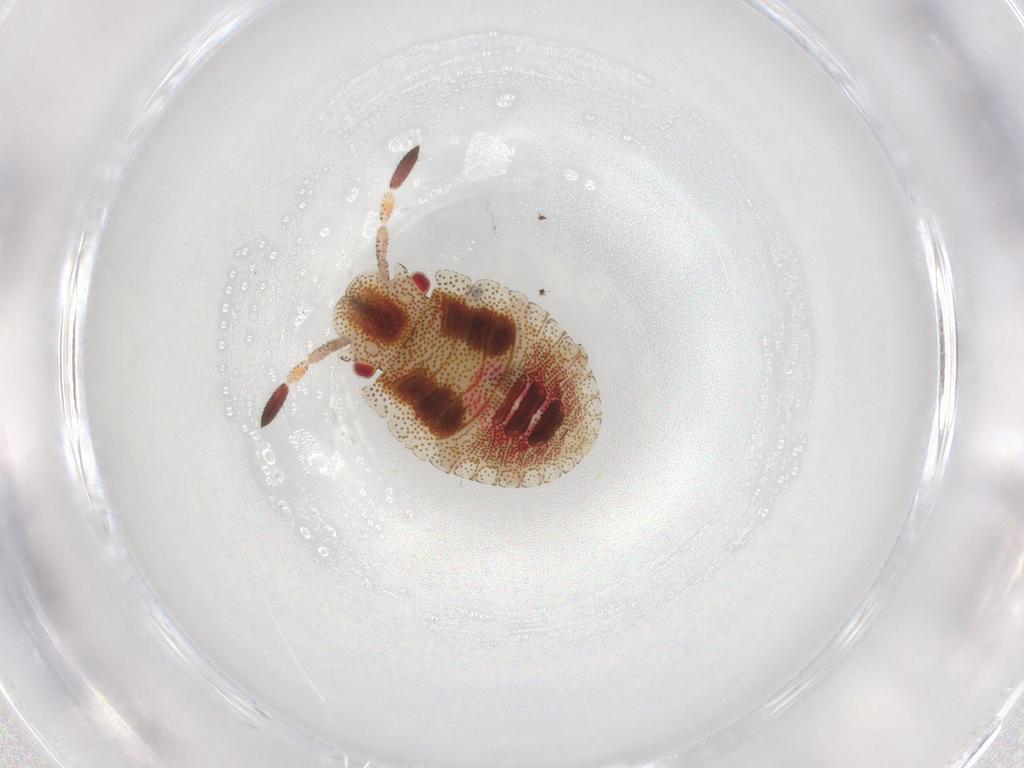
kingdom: Animalia
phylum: Arthropoda
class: Insecta
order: Hemiptera
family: Pentatomidae
